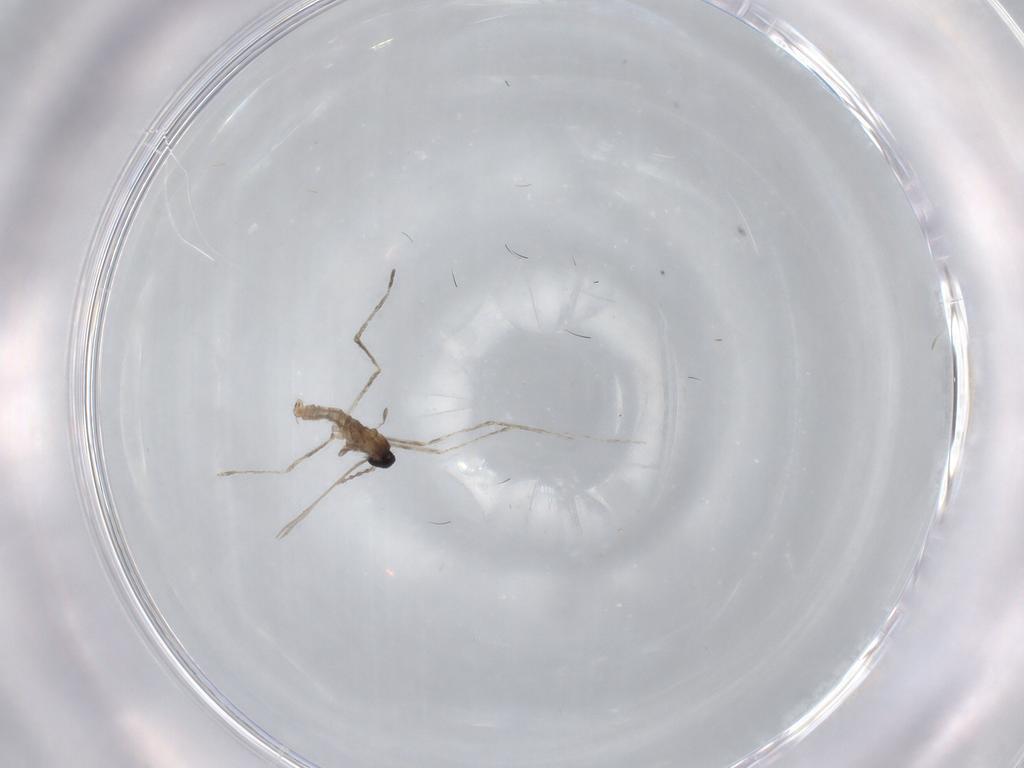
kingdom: Animalia
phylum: Arthropoda
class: Insecta
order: Diptera
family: Cecidomyiidae
